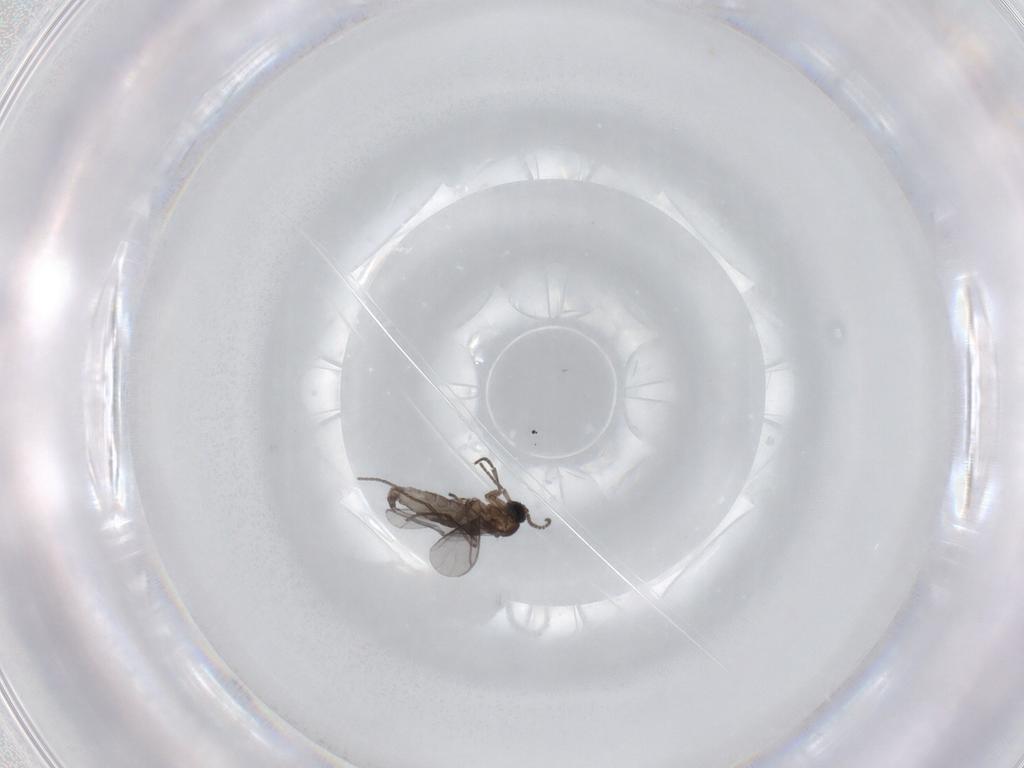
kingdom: Animalia
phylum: Arthropoda
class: Insecta
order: Diptera
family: Sciaridae
